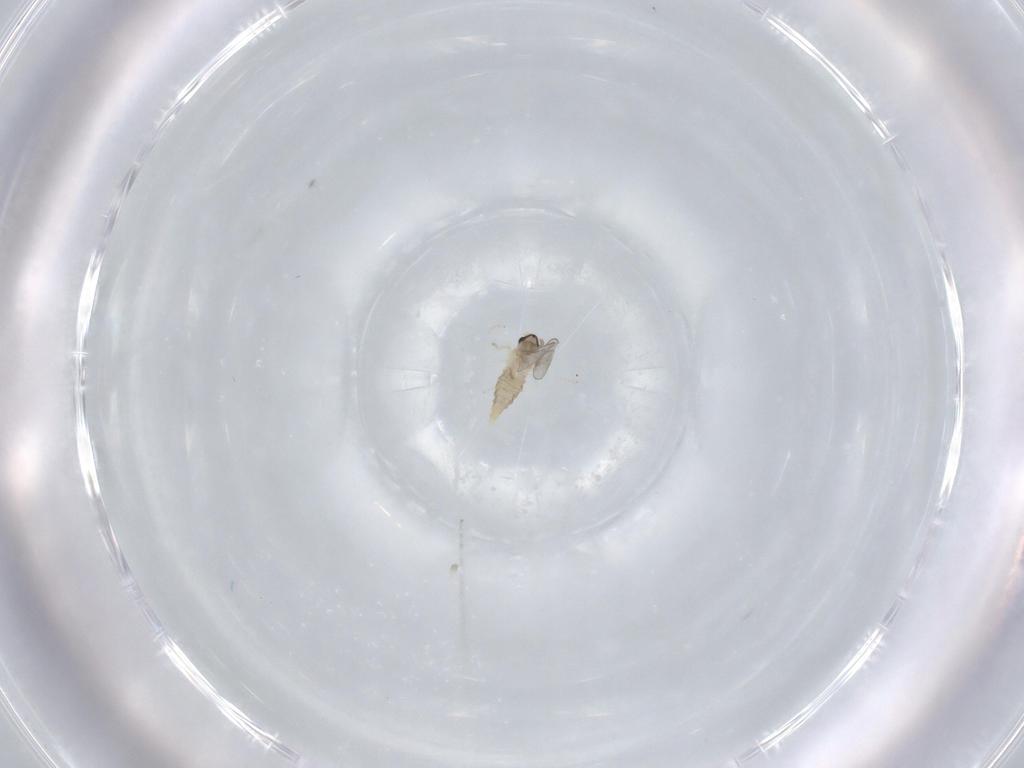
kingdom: Animalia
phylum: Arthropoda
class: Insecta
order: Diptera
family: Cecidomyiidae
